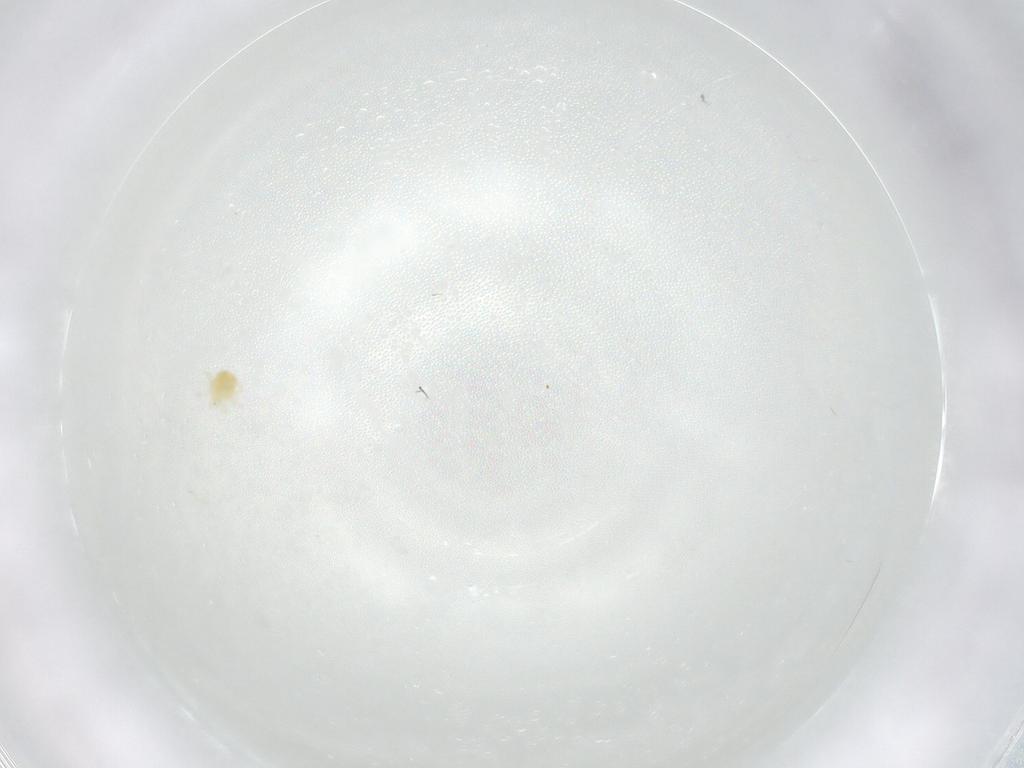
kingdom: Animalia
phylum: Arthropoda
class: Arachnida
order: Trombidiformes
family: Anystidae
